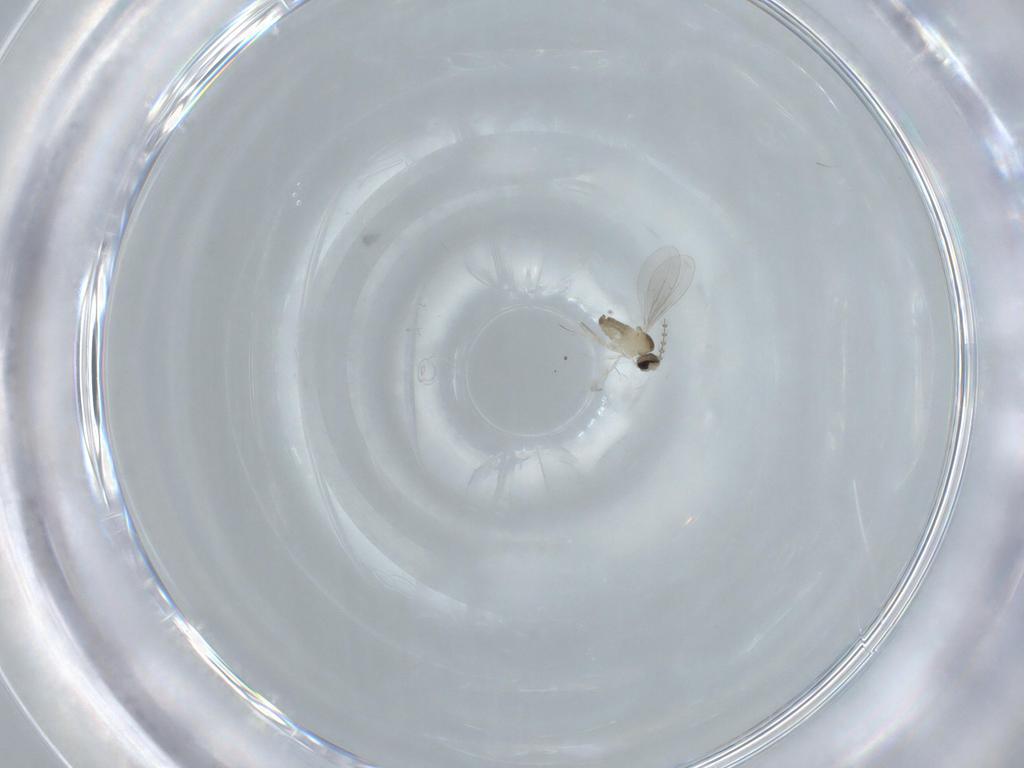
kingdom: Animalia
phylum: Arthropoda
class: Insecta
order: Diptera
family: Cecidomyiidae
